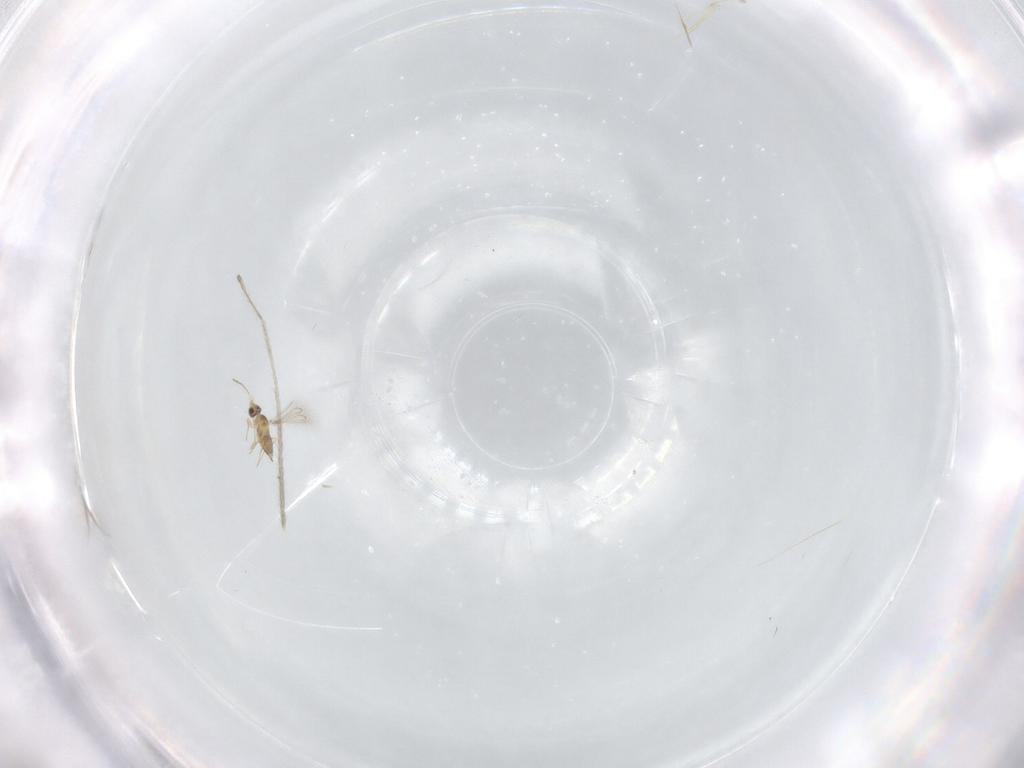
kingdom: Animalia
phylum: Arthropoda
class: Insecta
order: Hymenoptera
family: Mymaridae
